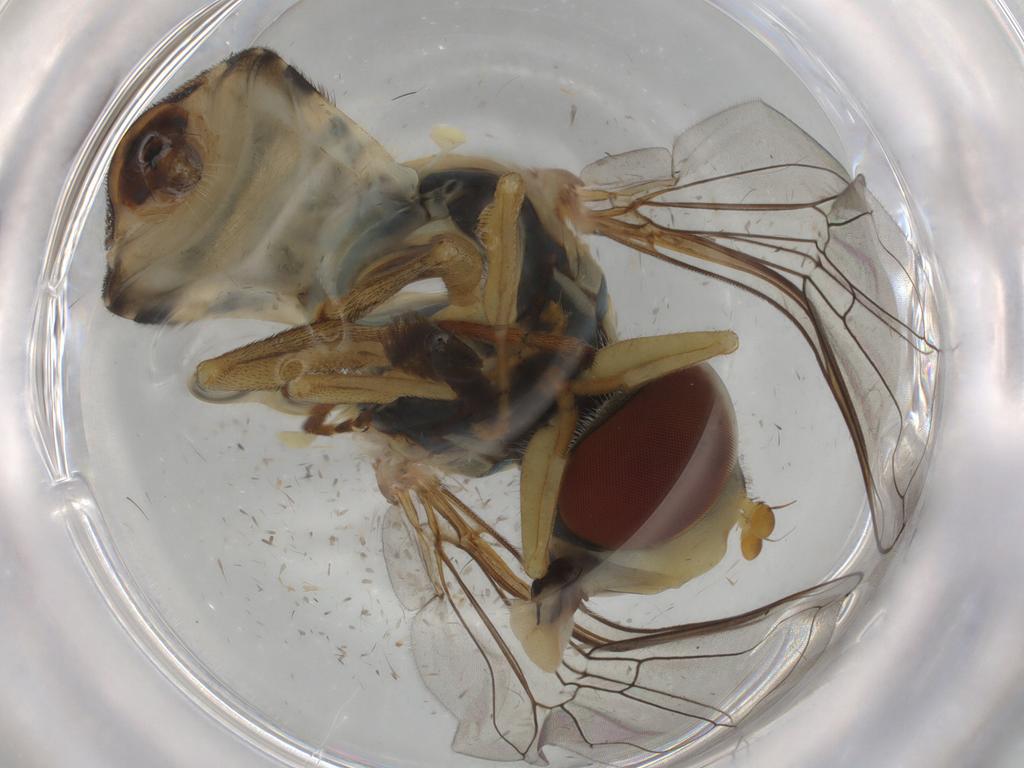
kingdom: Animalia
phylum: Arthropoda
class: Insecta
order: Diptera
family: Syrphidae
